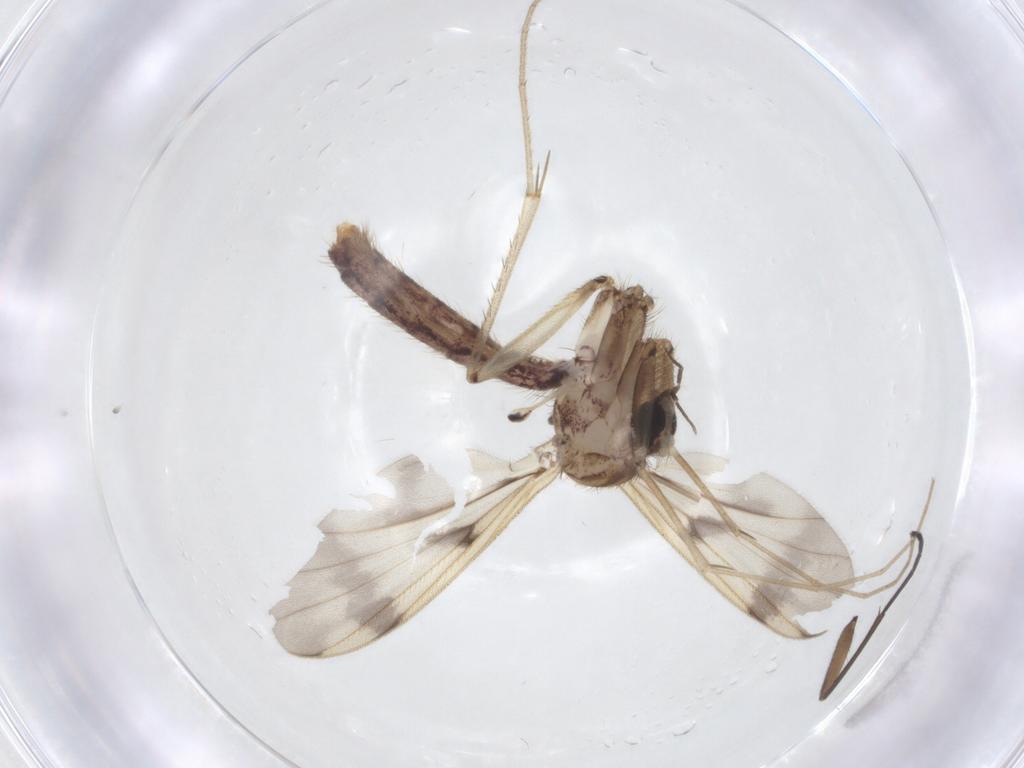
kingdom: Animalia
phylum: Arthropoda
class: Insecta
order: Diptera
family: Mycetophilidae
